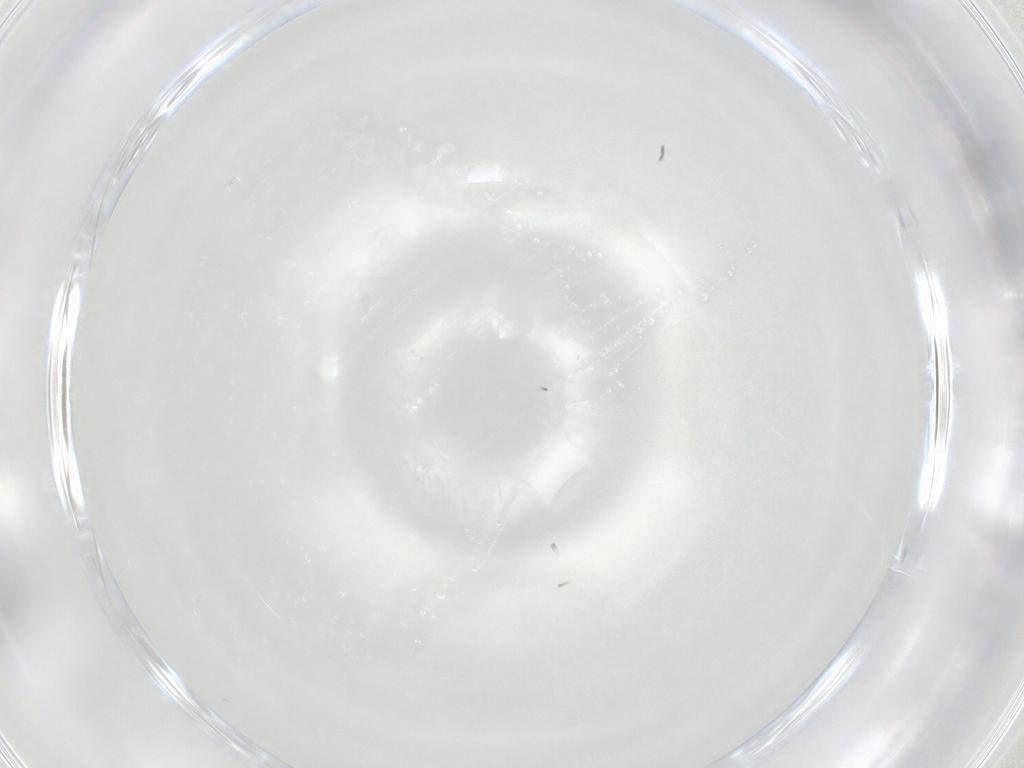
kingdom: Animalia
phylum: Arthropoda
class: Collembola
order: Entomobryomorpha
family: Entomobryidae
